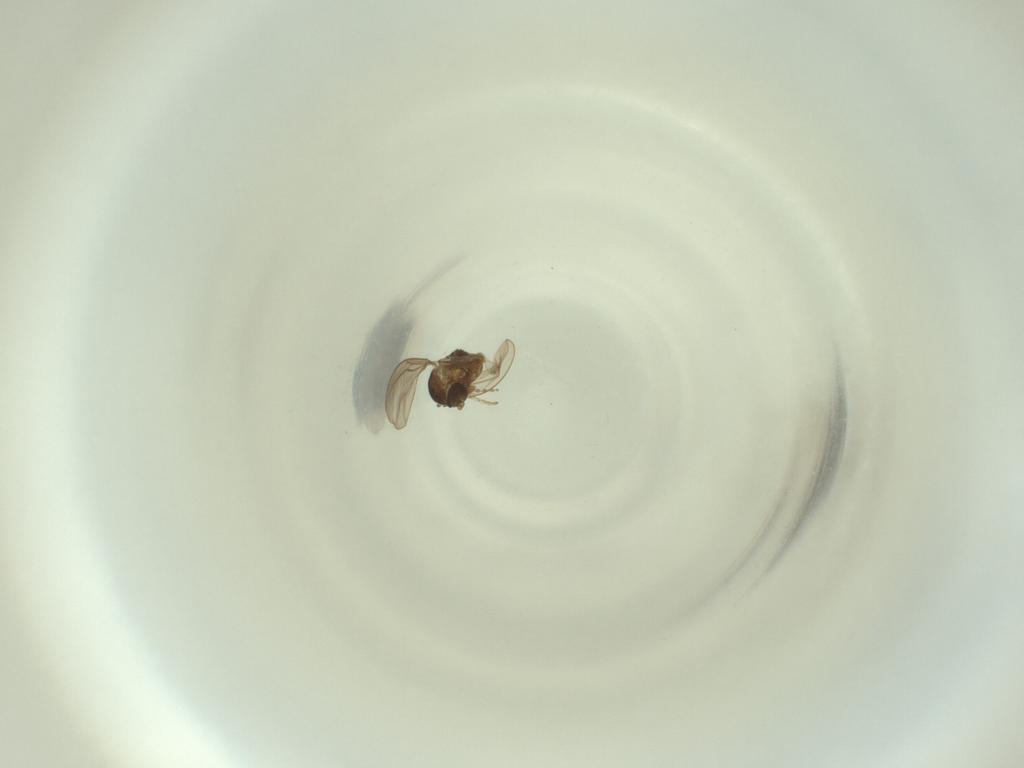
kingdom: Animalia
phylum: Arthropoda
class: Insecta
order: Diptera
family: Cecidomyiidae
